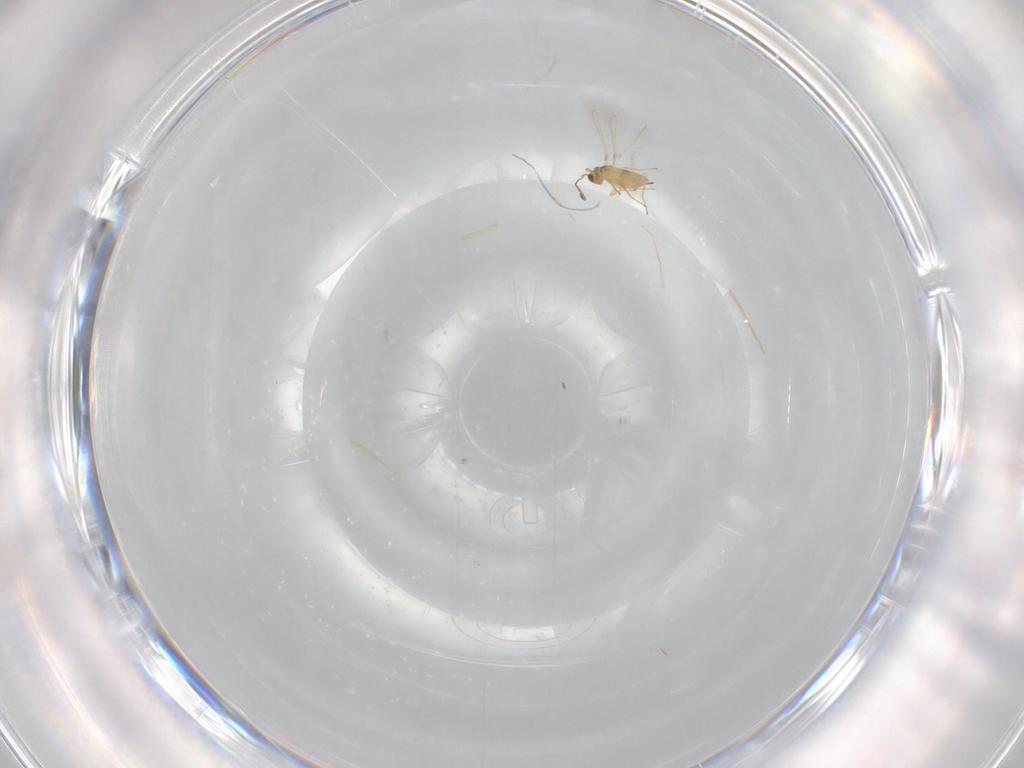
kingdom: Animalia
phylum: Arthropoda
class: Insecta
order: Hymenoptera
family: Mymaridae
